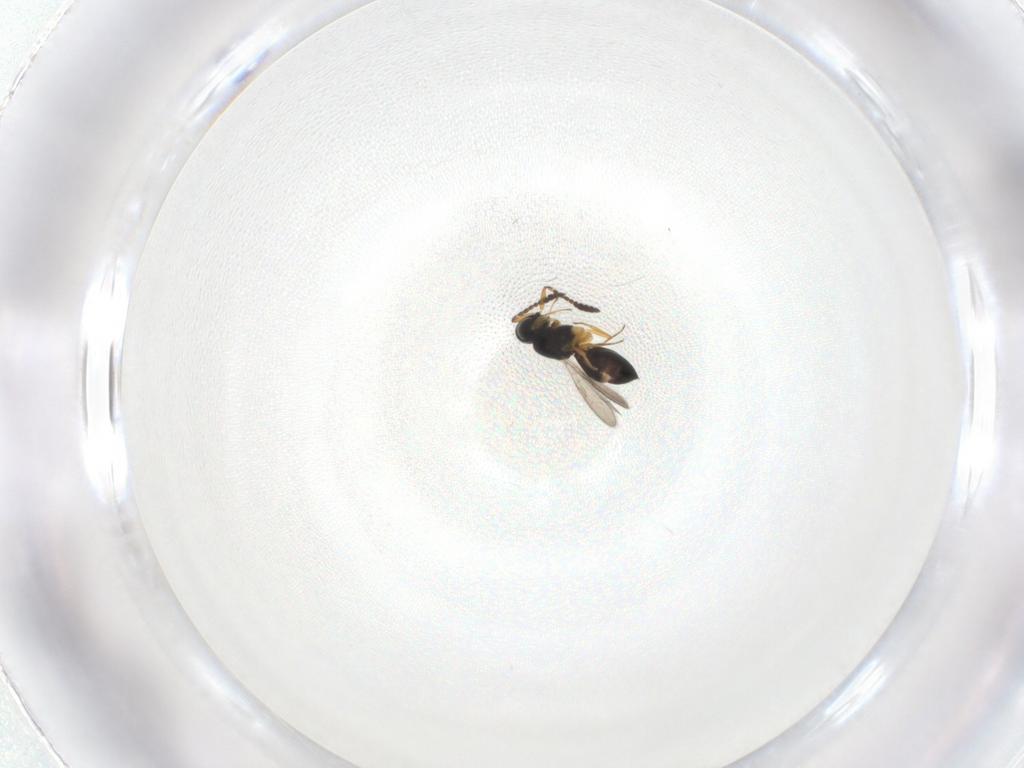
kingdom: Animalia
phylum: Arthropoda
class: Insecta
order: Hymenoptera
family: Scelionidae
